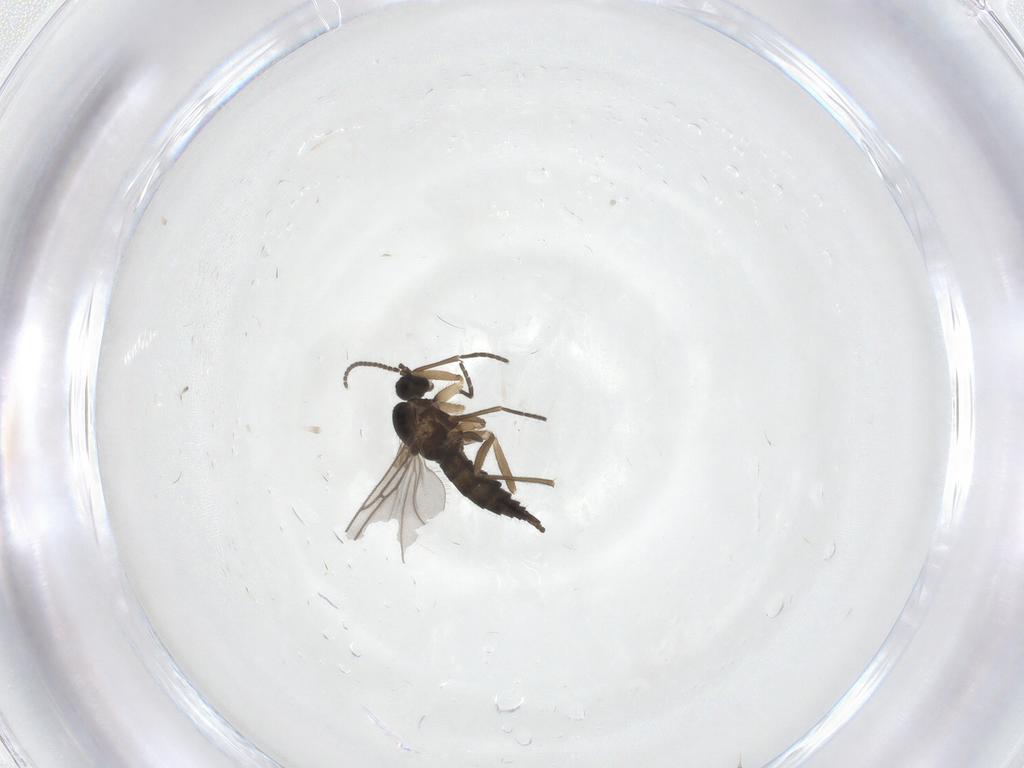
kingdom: Animalia
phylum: Arthropoda
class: Insecta
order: Diptera
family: Sciaridae
